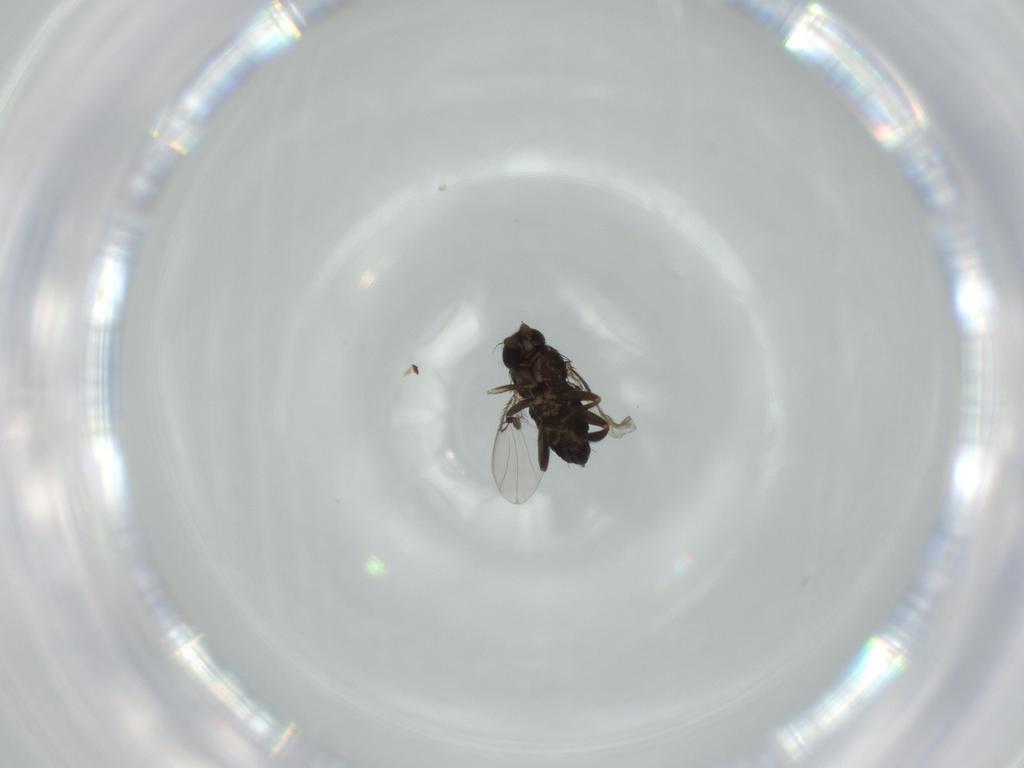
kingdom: Animalia
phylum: Arthropoda
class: Insecta
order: Diptera
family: Phoridae
